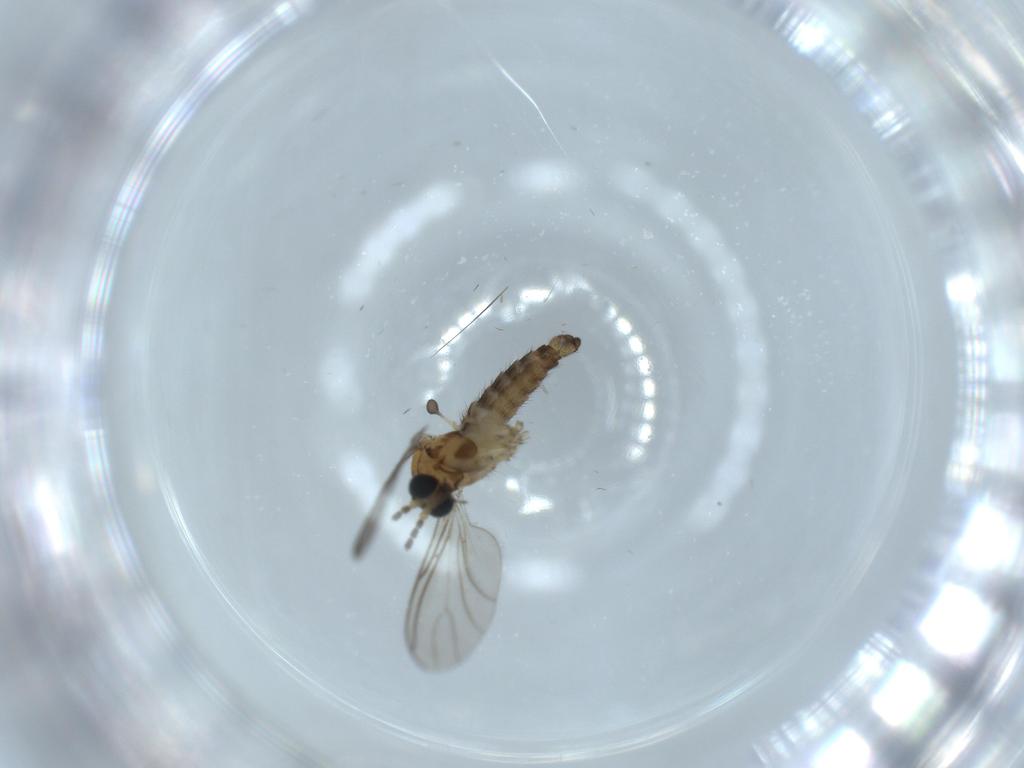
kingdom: Animalia
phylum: Arthropoda
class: Insecta
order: Diptera
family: Sciaridae
